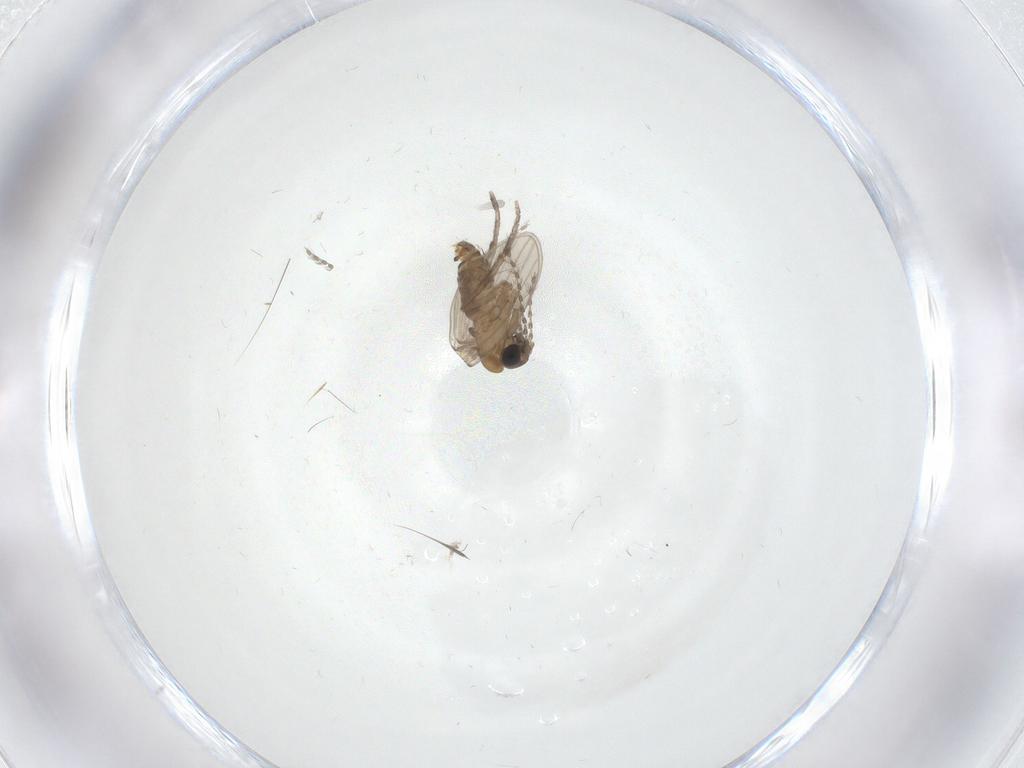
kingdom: Animalia
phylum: Arthropoda
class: Insecta
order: Diptera
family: Psychodidae
